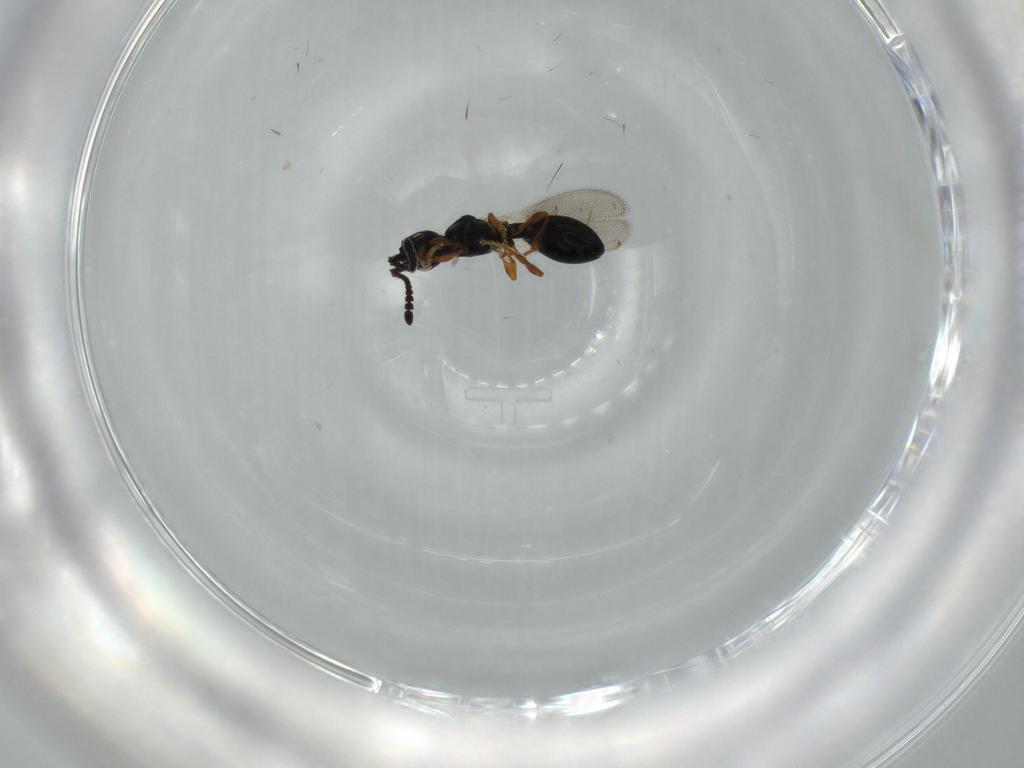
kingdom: Animalia
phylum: Arthropoda
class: Insecta
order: Hymenoptera
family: Diapriidae
